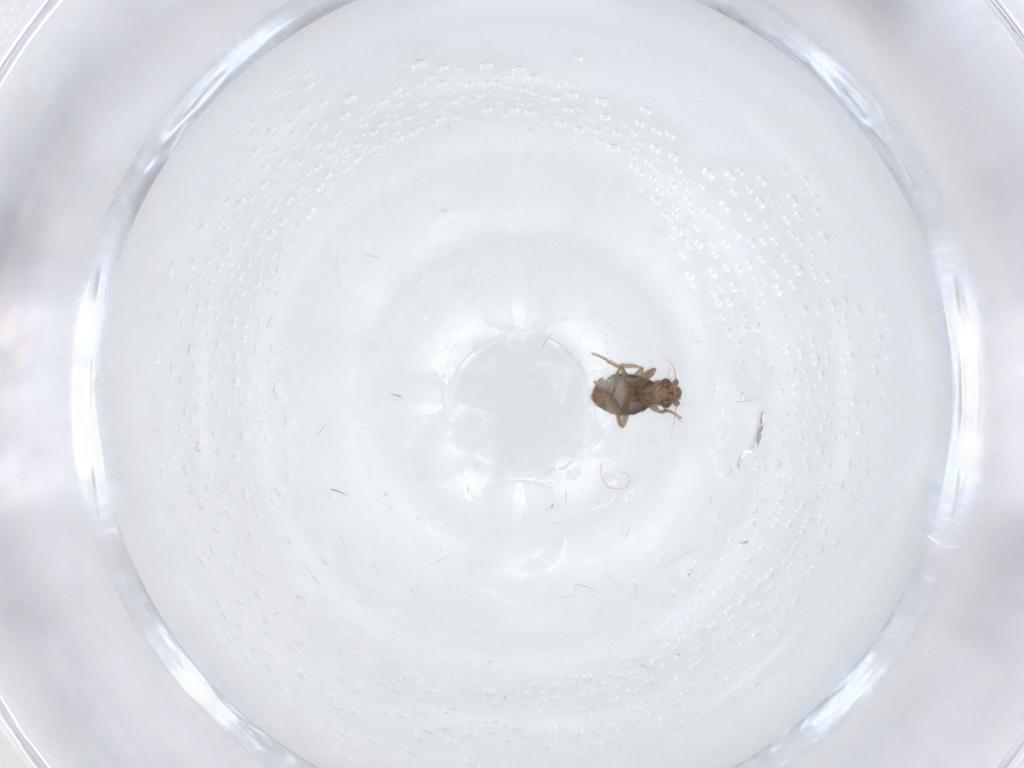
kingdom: Animalia
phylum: Arthropoda
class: Insecta
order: Diptera
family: Phoridae
